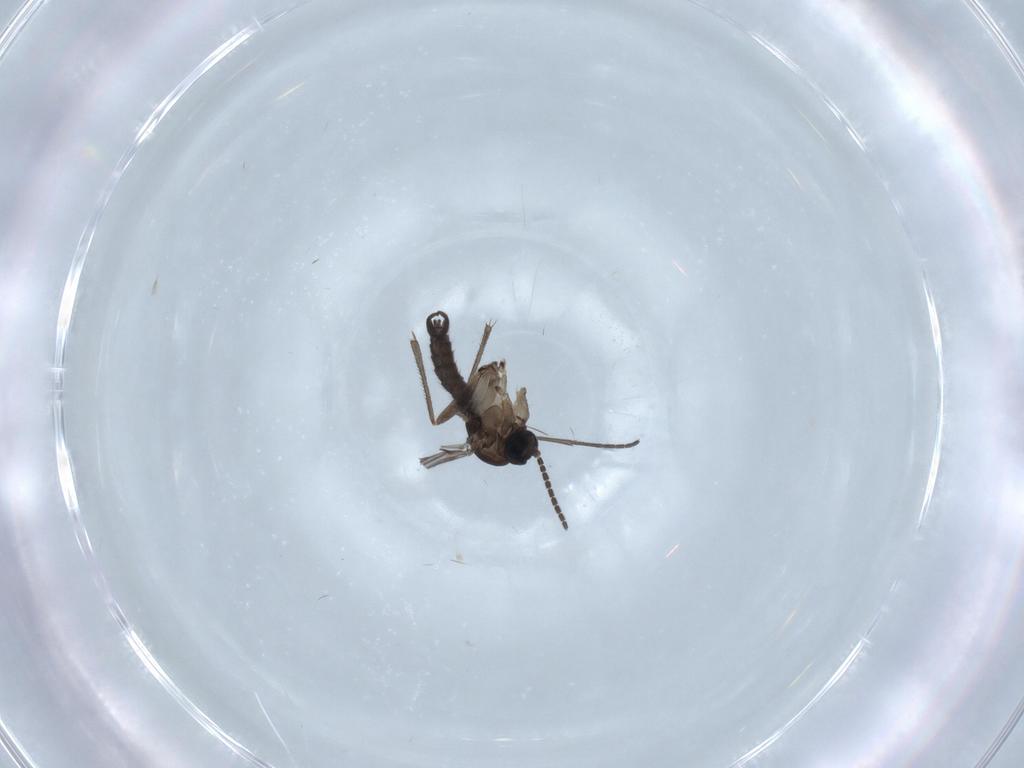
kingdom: Animalia
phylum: Arthropoda
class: Insecta
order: Diptera
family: Sciaridae
